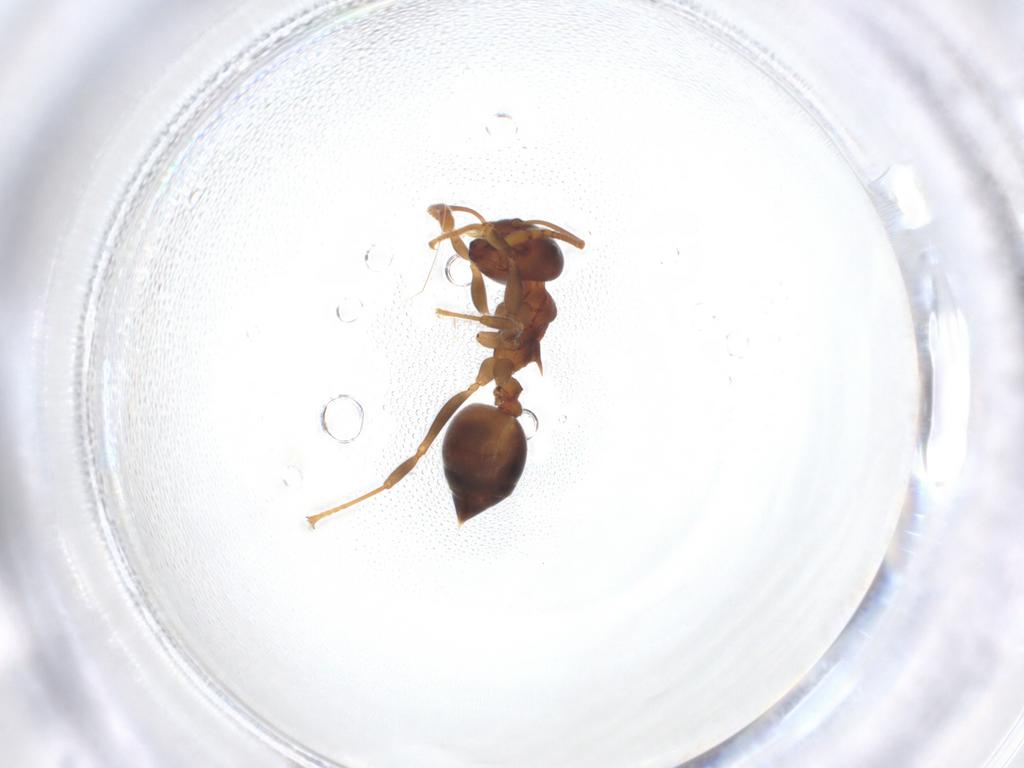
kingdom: Animalia
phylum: Arthropoda
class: Insecta
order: Hymenoptera
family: Formicidae
